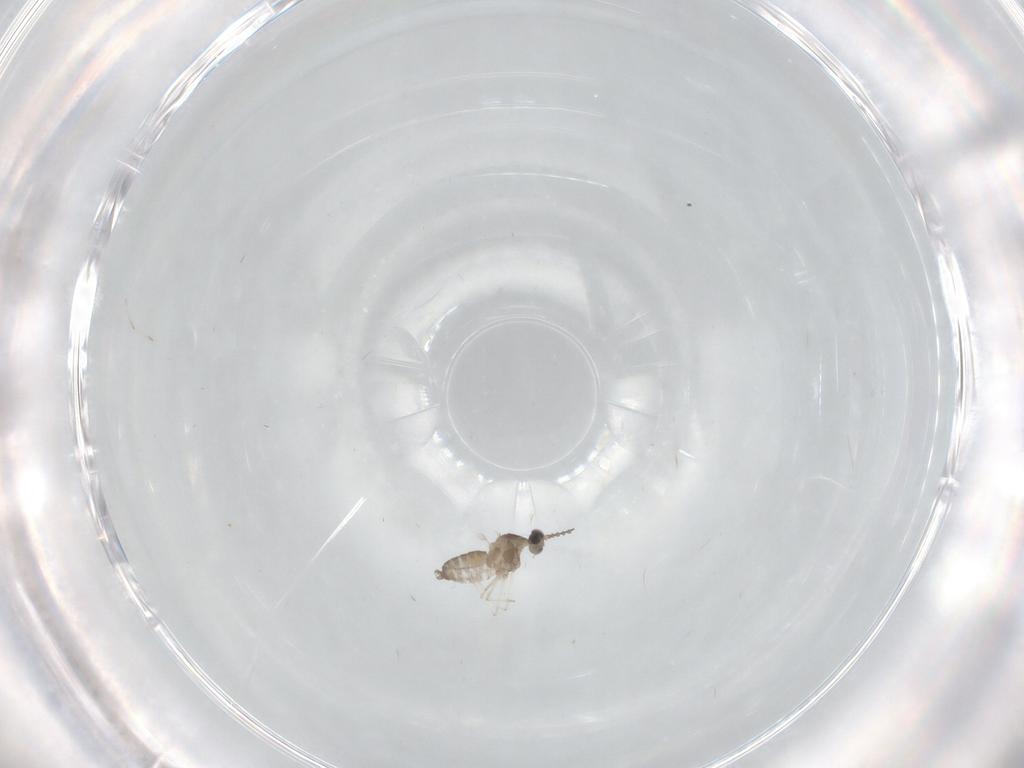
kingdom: Animalia
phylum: Arthropoda
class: Insecta
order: Diptera
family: Cecidomyiidae
